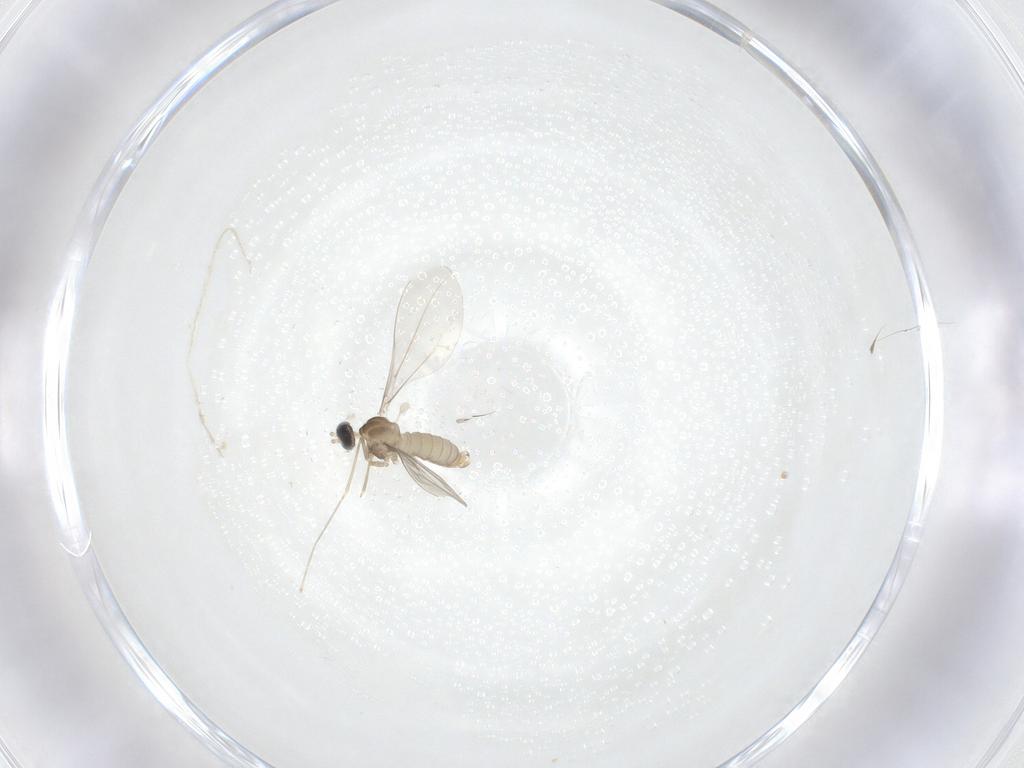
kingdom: Animalia
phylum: Arthropoda
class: Insecta
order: Diptera
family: Cecidomyiidae
